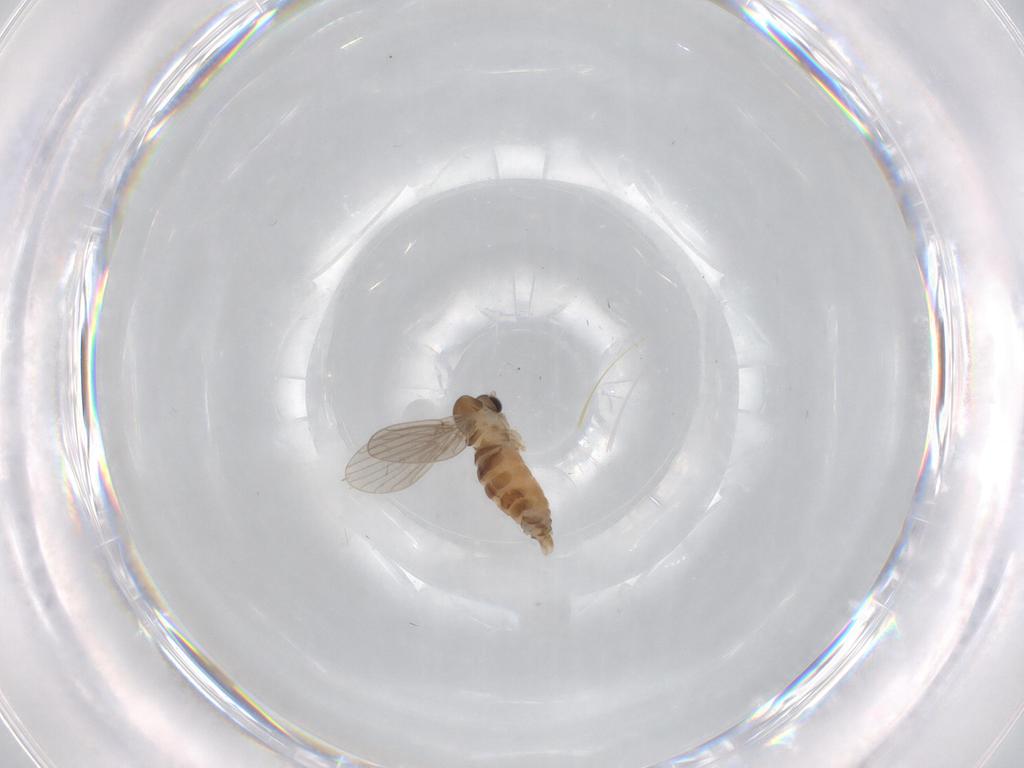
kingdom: Animalia
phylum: Arthropoda
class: Insecta
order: Diptera
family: Psychodidae
